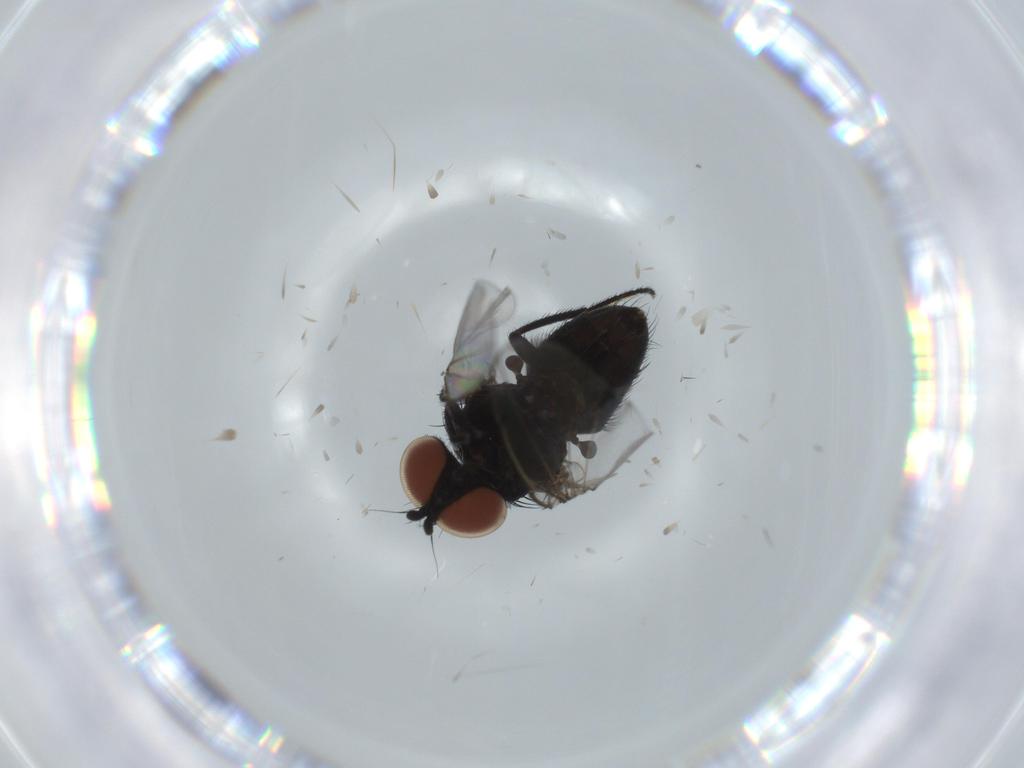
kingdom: Animalia
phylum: Arthropoda
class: Insecta
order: Diptera
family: Milichiidae
